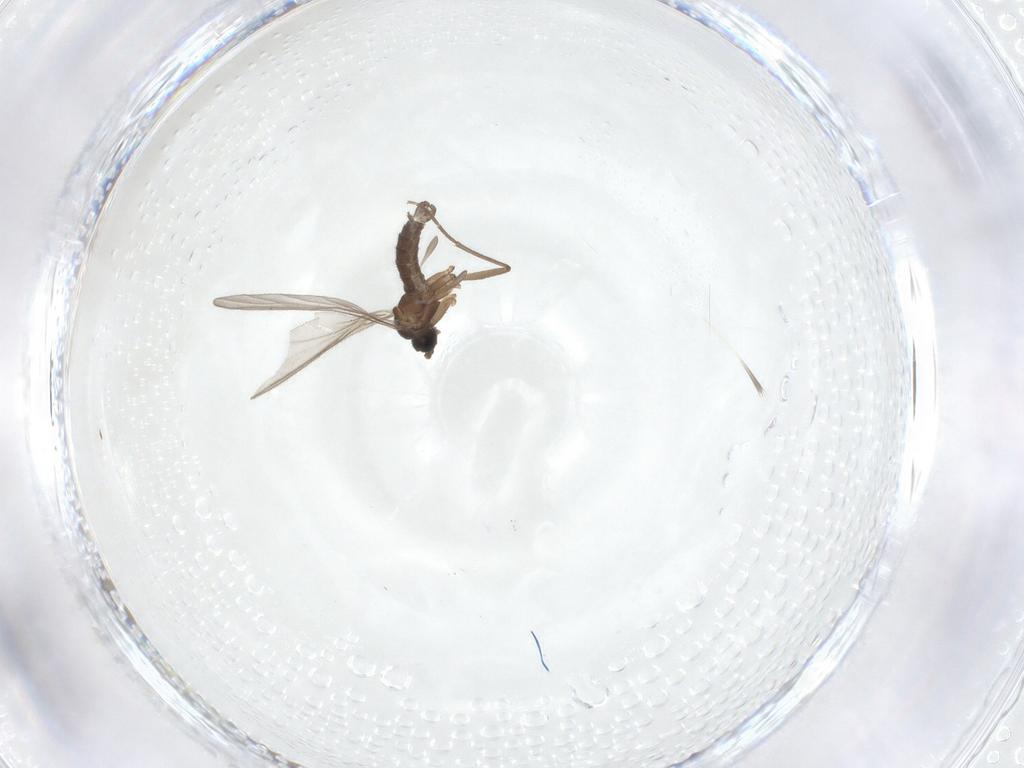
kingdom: Animalia
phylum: Arthropoda
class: Insecta
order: Diptera
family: Sciaridae
